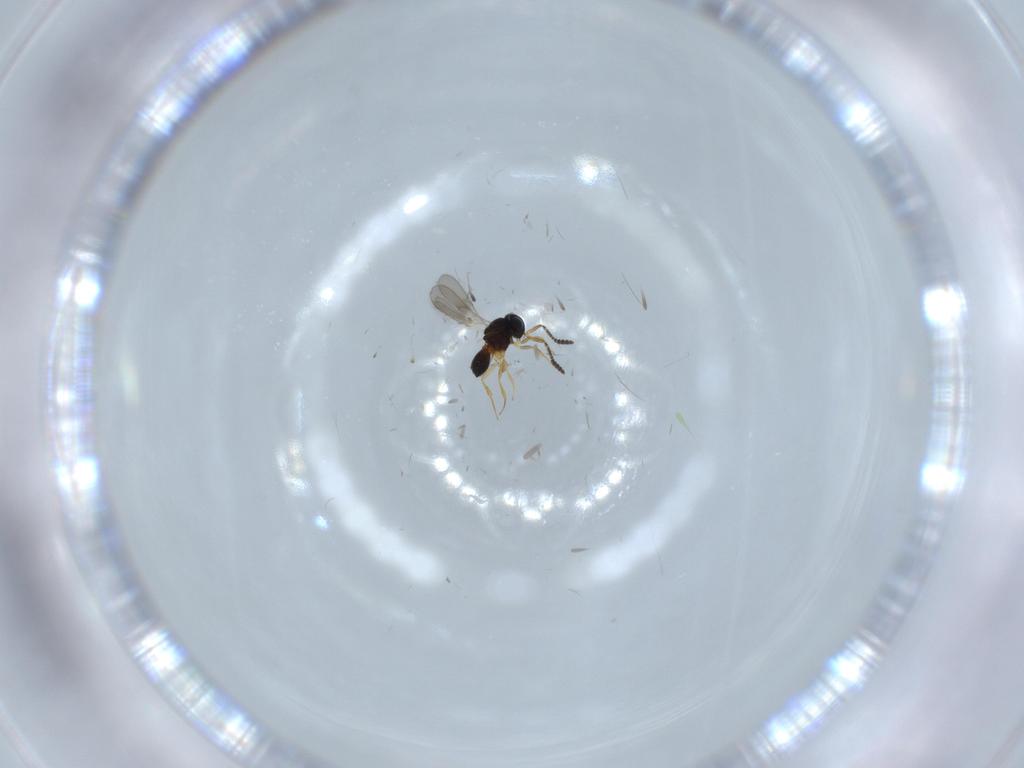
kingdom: Animalia
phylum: Arthropoda
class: Insecta
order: Hymenoptera
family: Scelionidae
